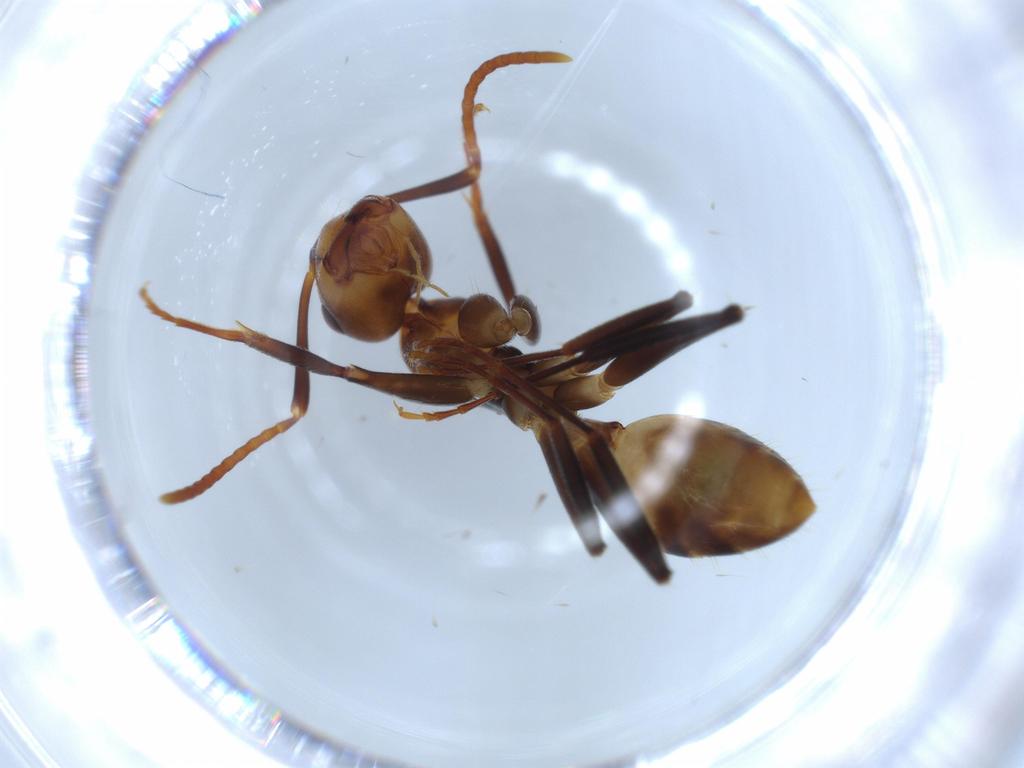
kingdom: Animalia
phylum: Arthropoda
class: Insecta
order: Hymenoptera
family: Formicidae
